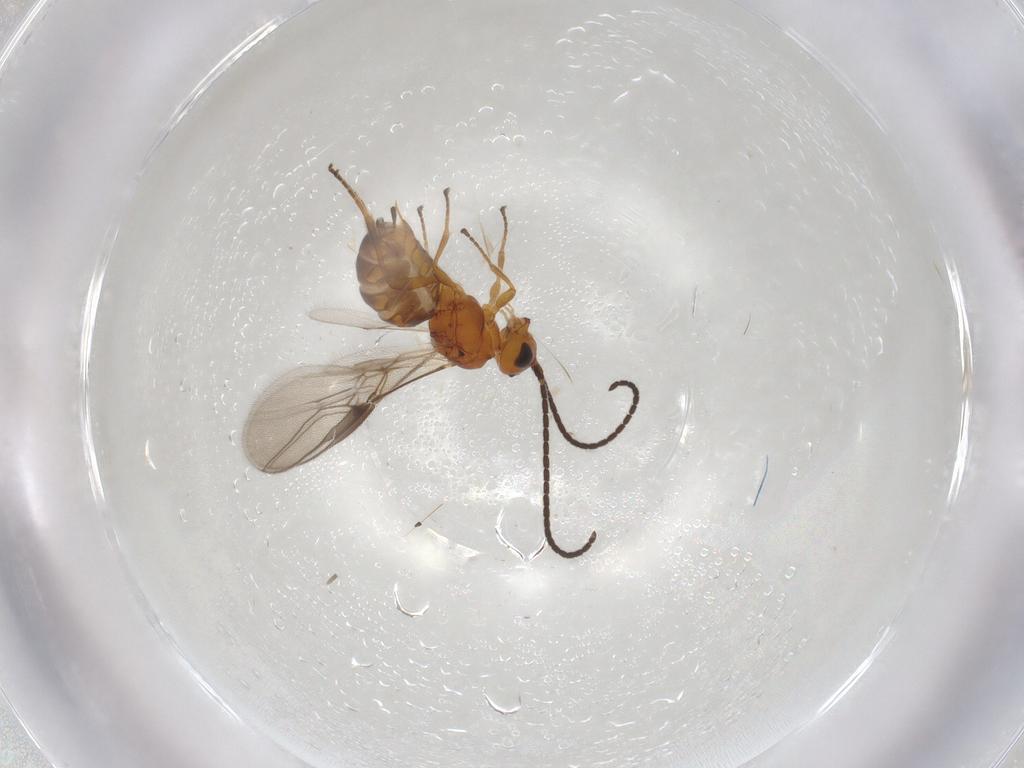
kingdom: Animalia
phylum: Arthropoda
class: Insecta
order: Hymenoptera
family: Braconidae
